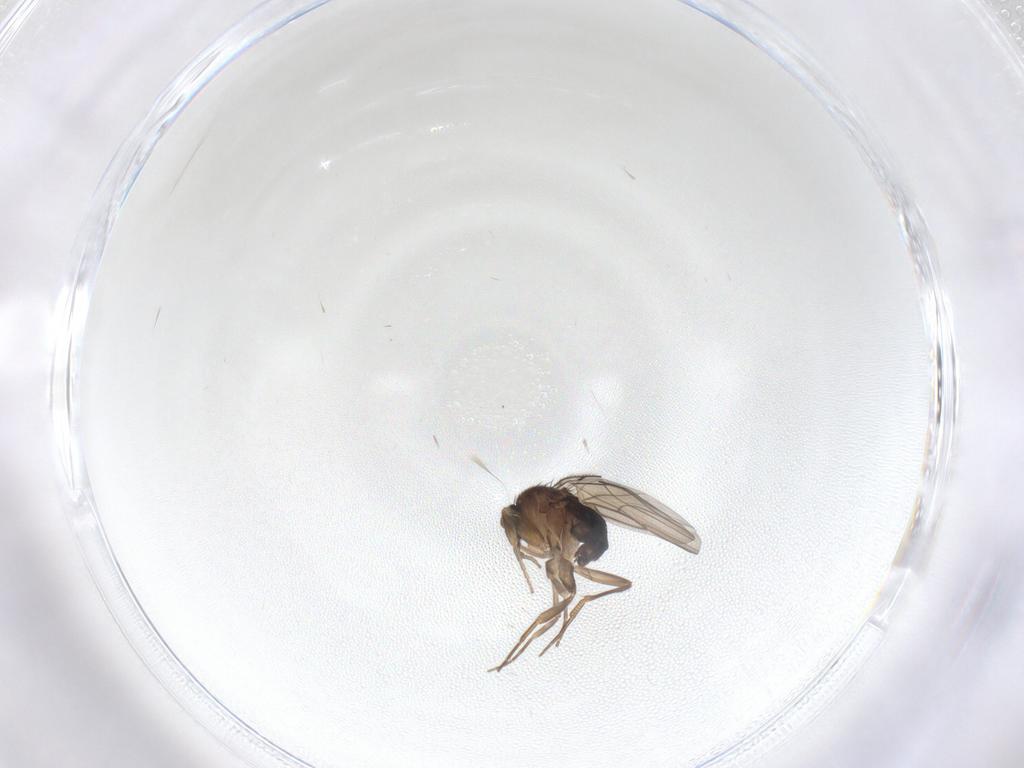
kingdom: Animalia
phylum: Arthropoda
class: Insecta
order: Diptera
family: Phoridae
